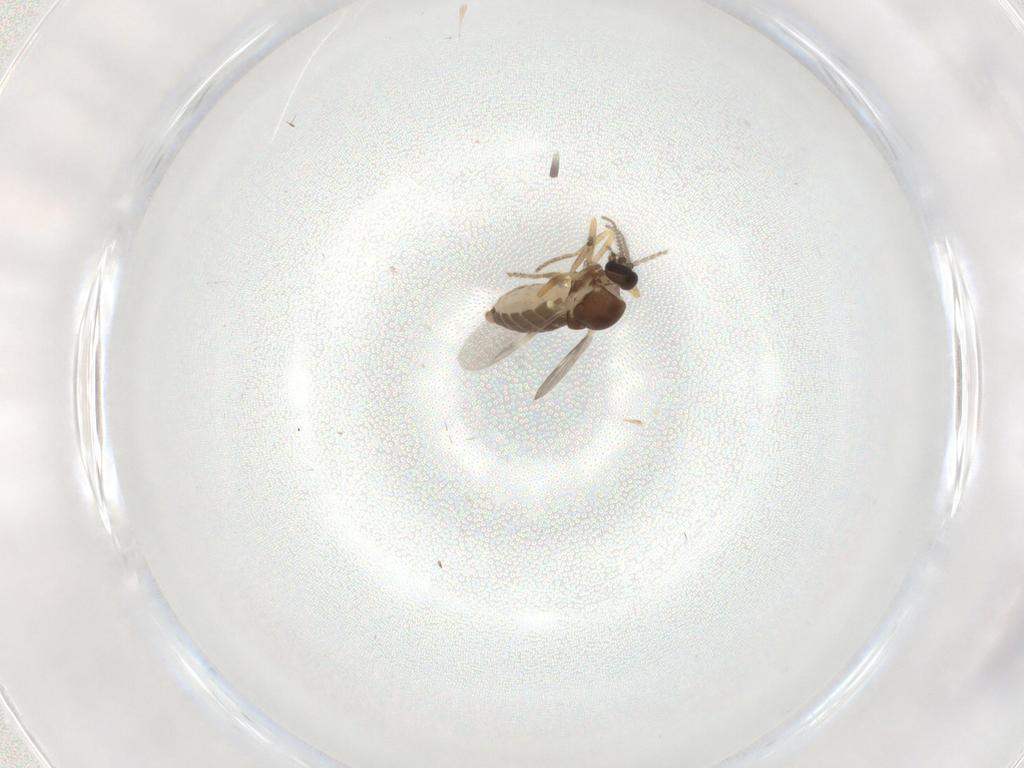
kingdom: Animalia
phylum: Arthropoda
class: Insecta
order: Diptera
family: Ceratopogonidae
